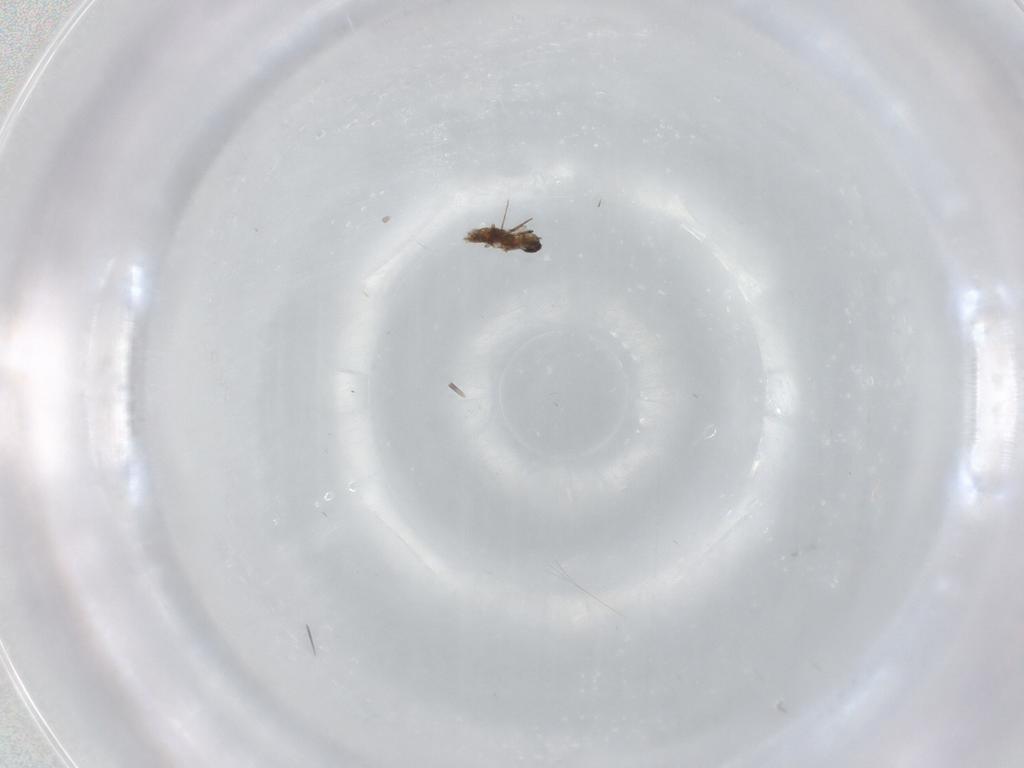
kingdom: Animalia
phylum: Arthropoda
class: Insecta
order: Diptera
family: Cecidomyiidae
